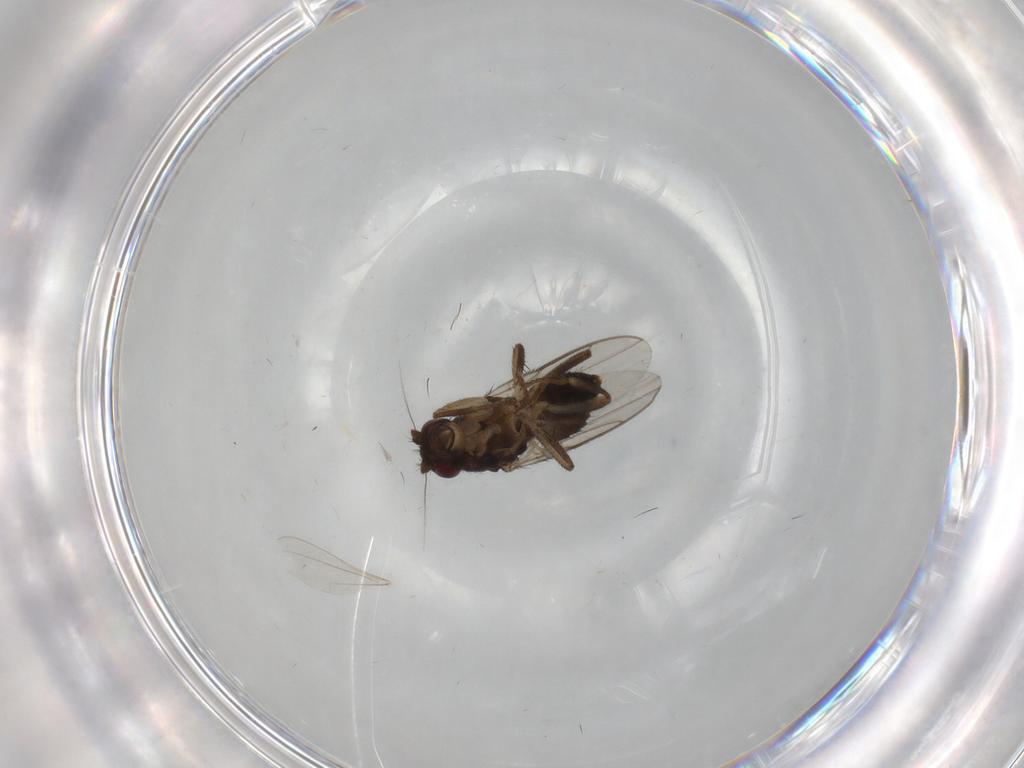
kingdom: Animalia
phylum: Arthropoda
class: Insecta
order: Diptera
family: Sphaeroceridae
